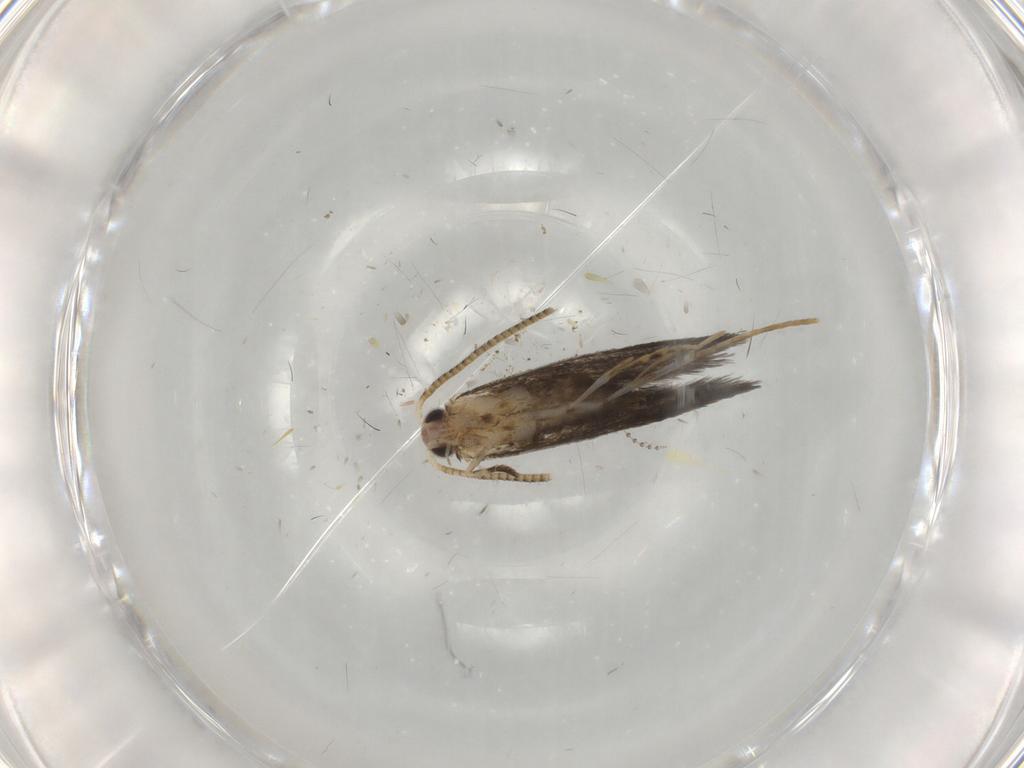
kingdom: Animalia
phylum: Arthropoda
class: Insecta
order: Lepidoptera
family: Tineidae
